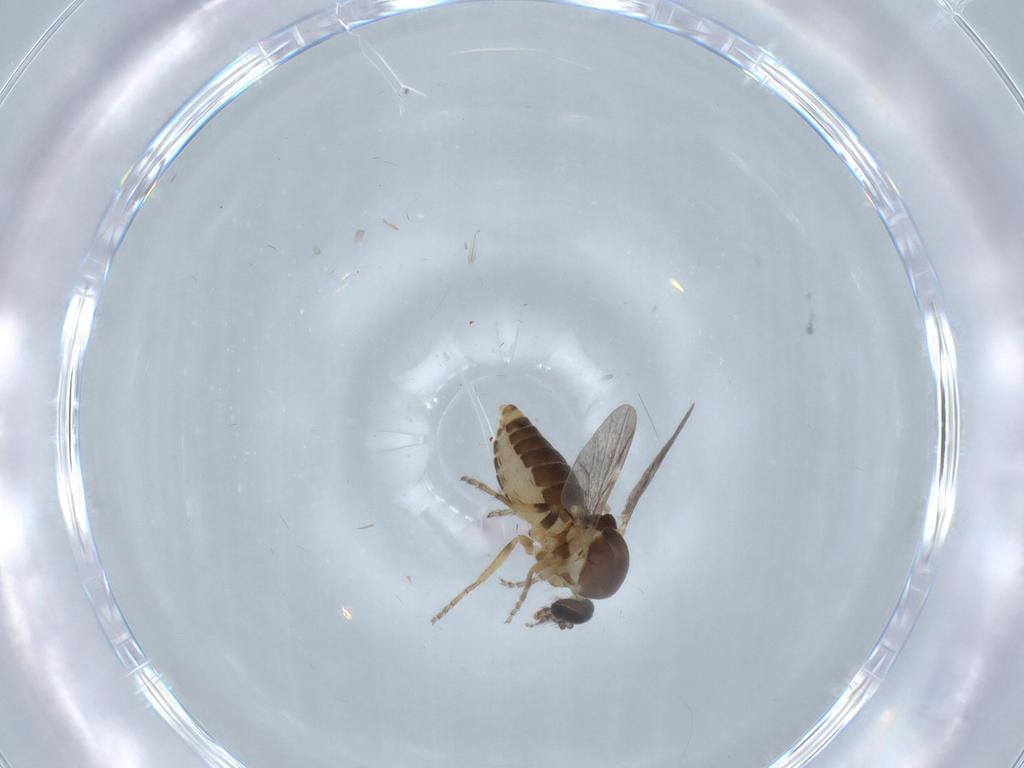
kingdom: Animalia
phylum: Arthropoda
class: Insecta
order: Diptera
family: Ceratopogonidae
